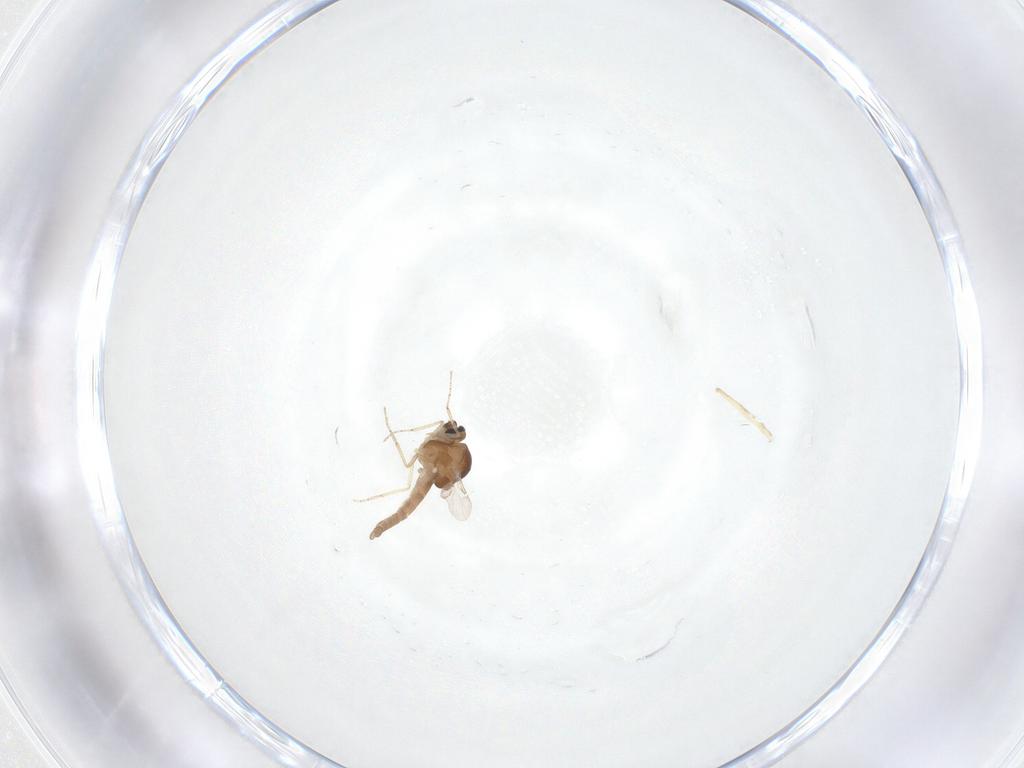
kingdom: Animalia
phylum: Arthropoda
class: Insecta
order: Diptera
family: Ceratopogonidae
